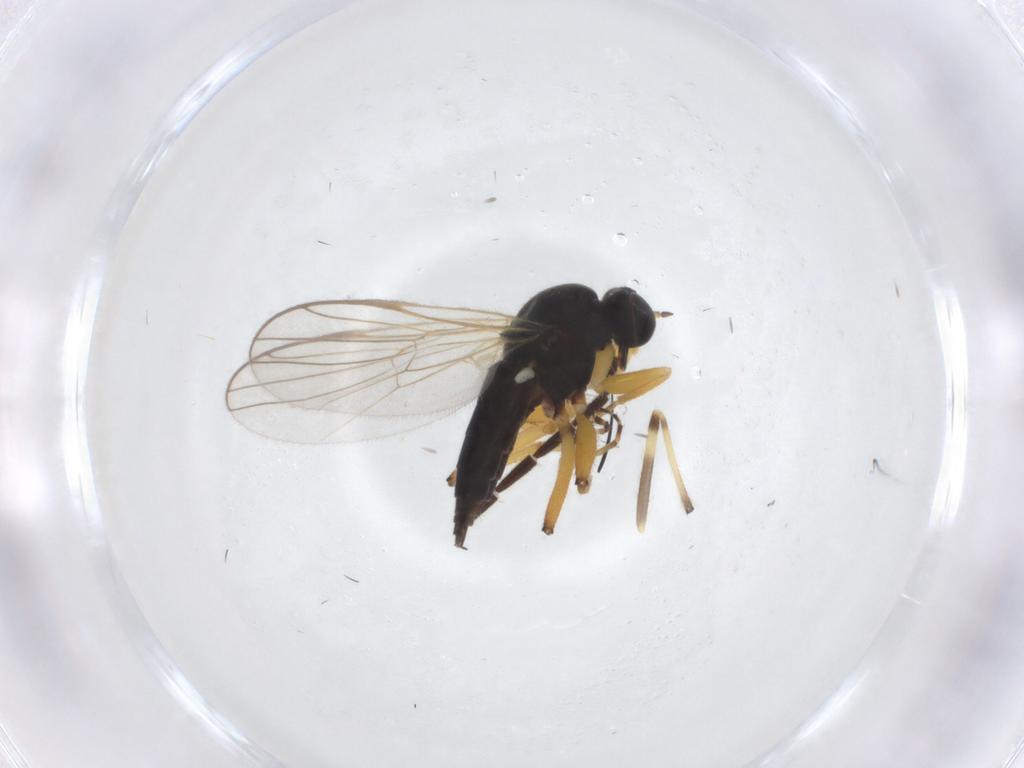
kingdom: Animalia
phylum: Arthropoda
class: Insecta
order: Diptera
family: Hybotidae
